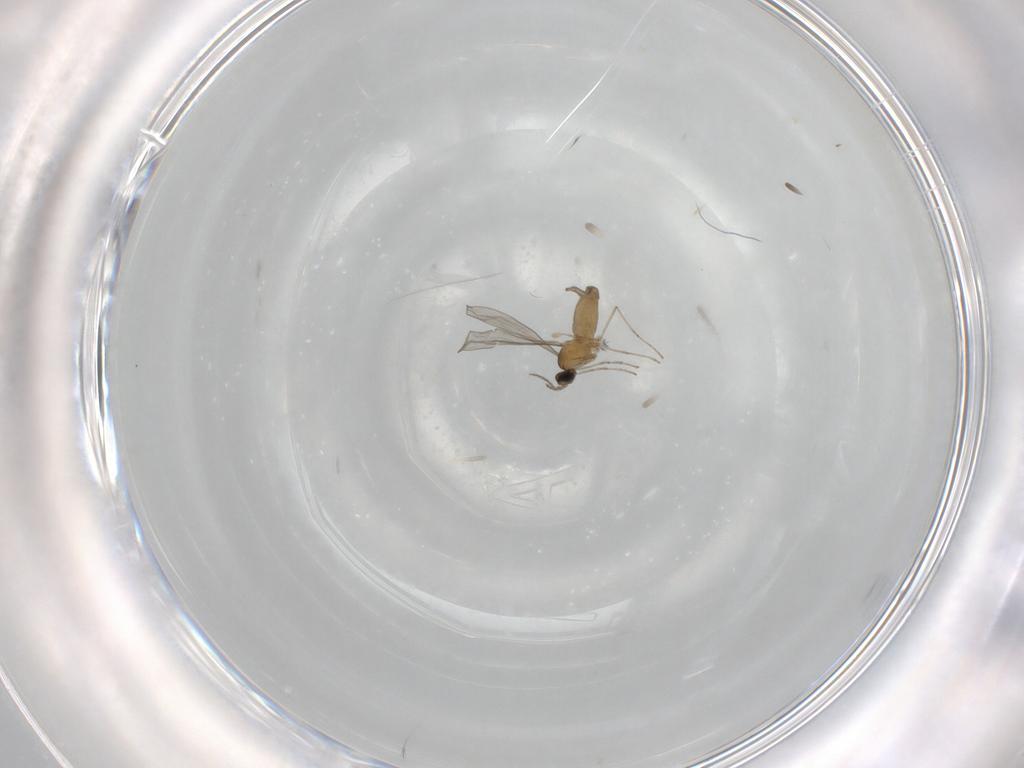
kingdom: Animalia
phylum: Arthropoda
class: Insecta
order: Diptera
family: Cecidomyiidae
